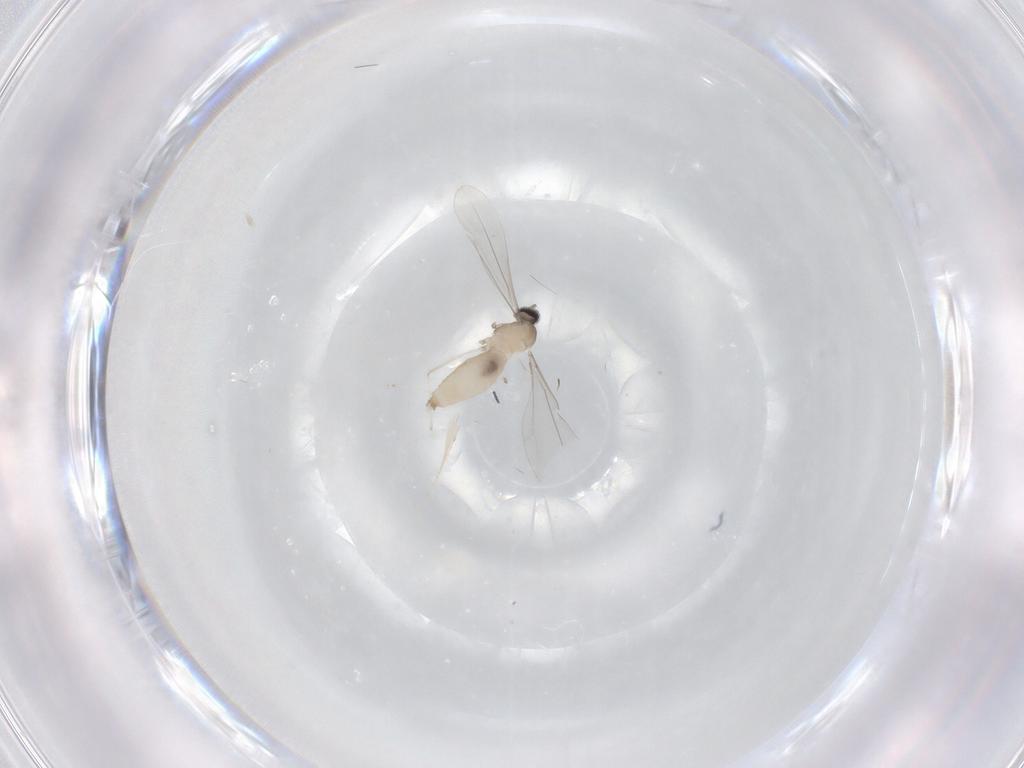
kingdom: Animalia
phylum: Arthropoda
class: Insecta
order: Diptera
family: Cecidomyiidae
